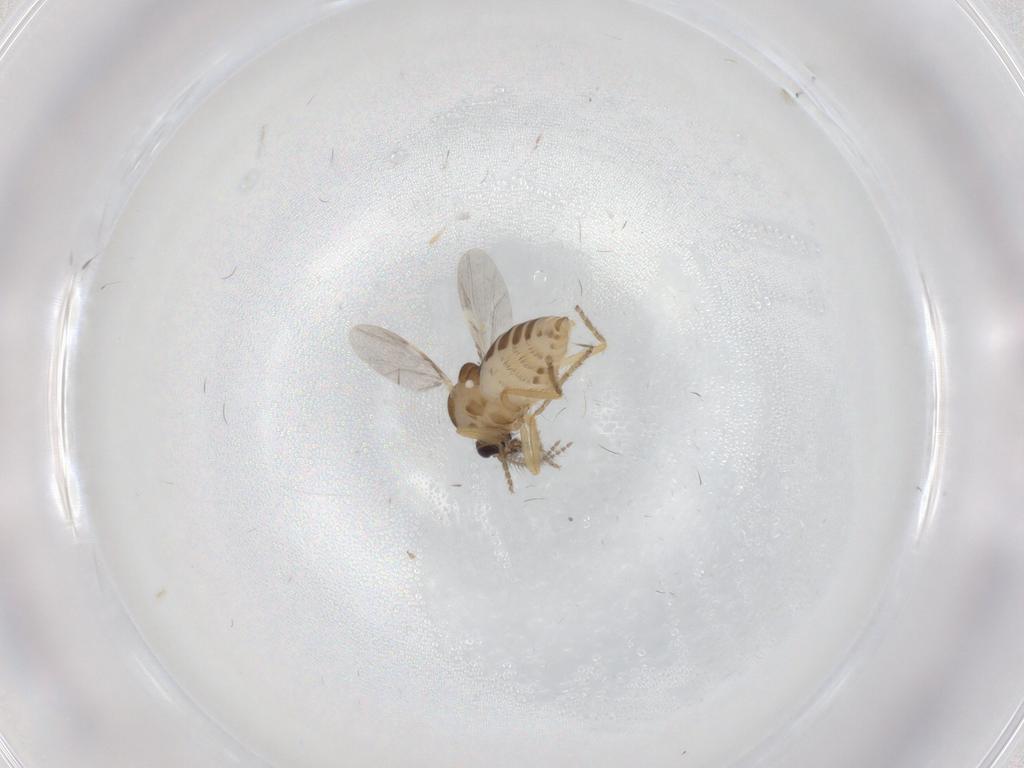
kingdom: Animalia
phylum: Arthropoda
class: Insecta
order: Diptera
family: Ceratopogonidae
